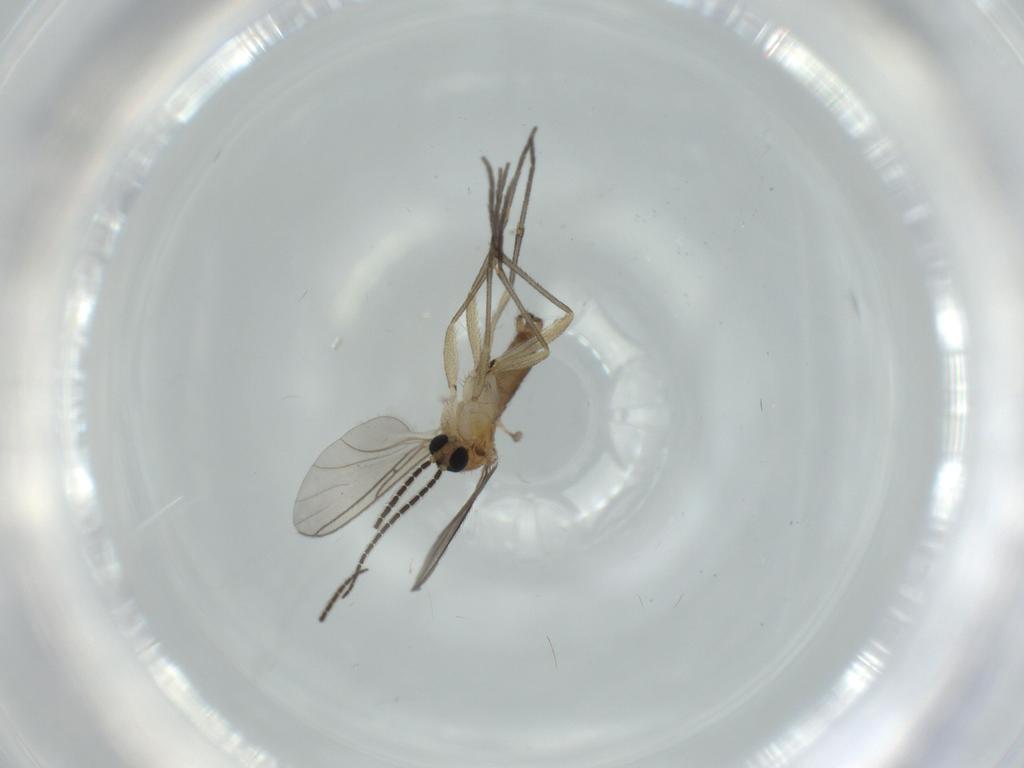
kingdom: Animalia
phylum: Arthropoda
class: Insecta
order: Diptera
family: Sciaridae
